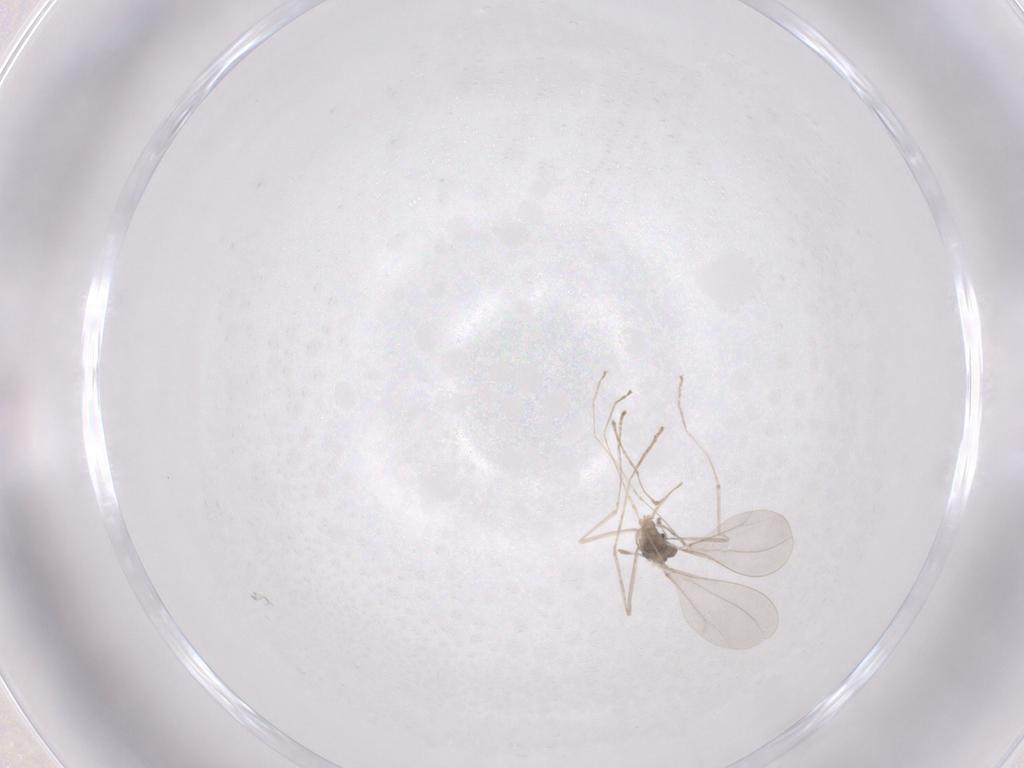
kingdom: Animalia
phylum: Arthropoda
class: Insecta
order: Diptera
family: Cecidomyiidae
